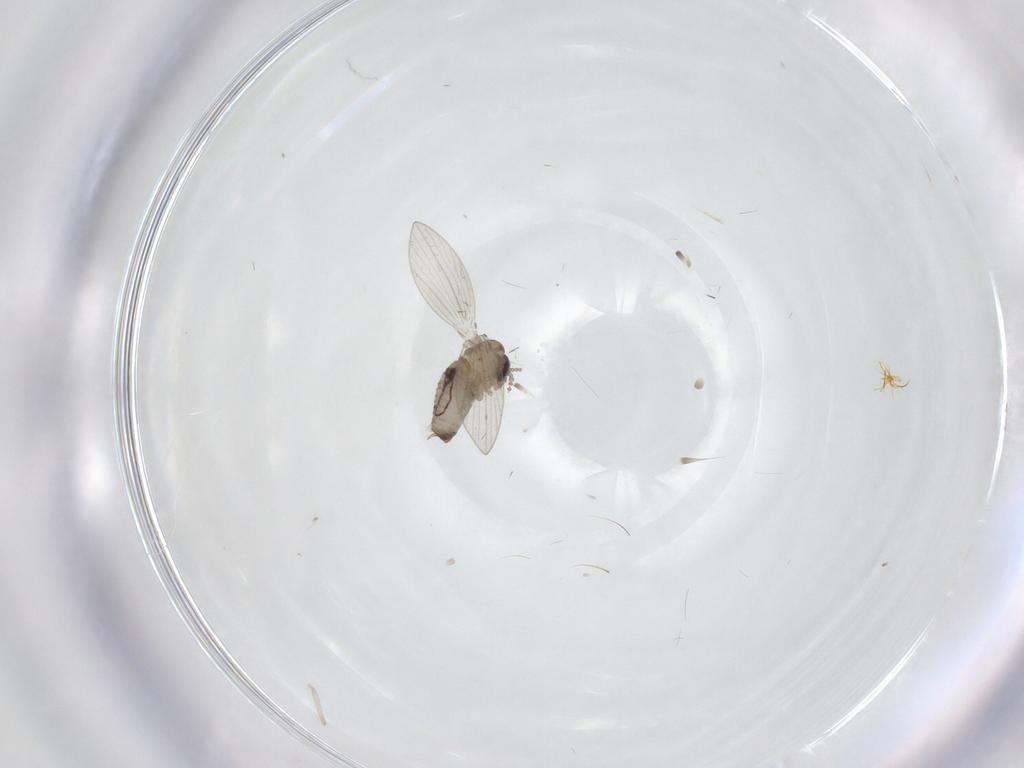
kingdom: Animalia
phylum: Arthropoda
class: Insecta
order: Diptera
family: Psychodidae
